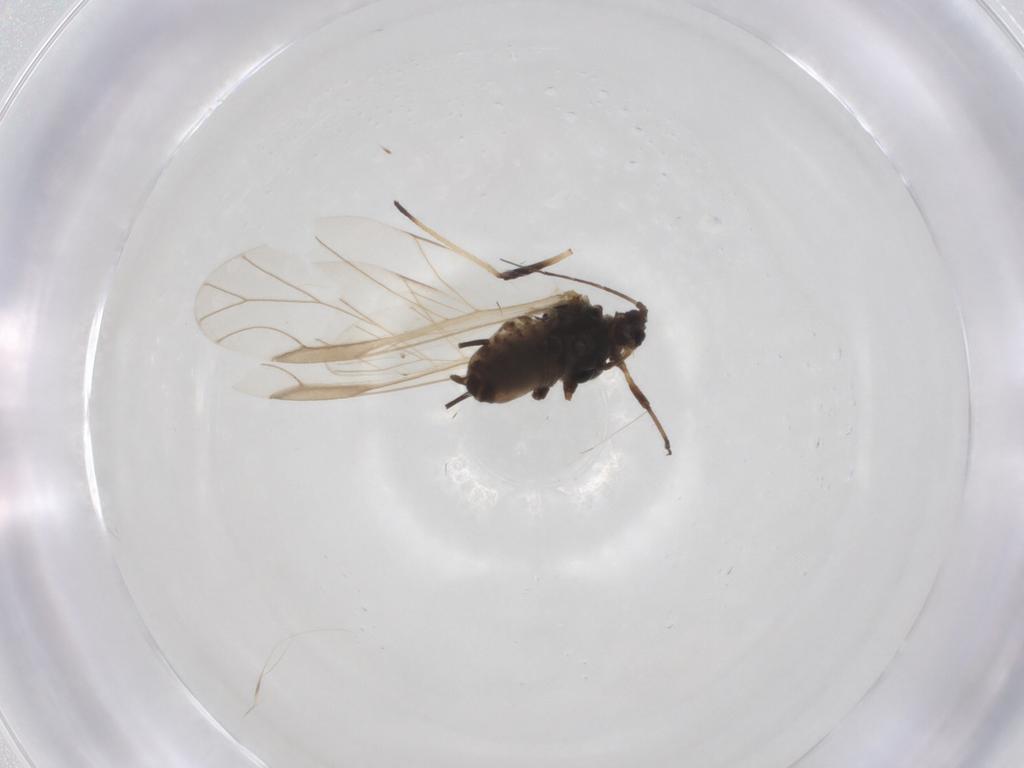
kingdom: Animalia
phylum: Arthropoda
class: Insecta
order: Hemiptera
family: Aphididae
